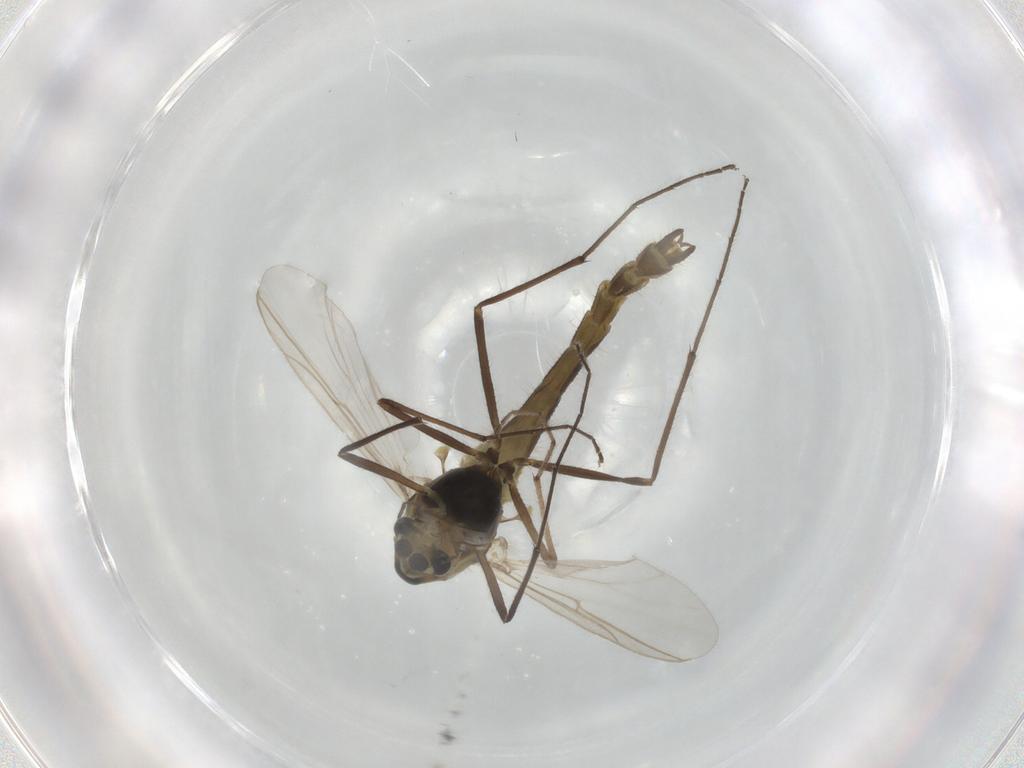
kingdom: Animalia
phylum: Arthropoda
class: Insecta
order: Diptera
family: Chironomidae
